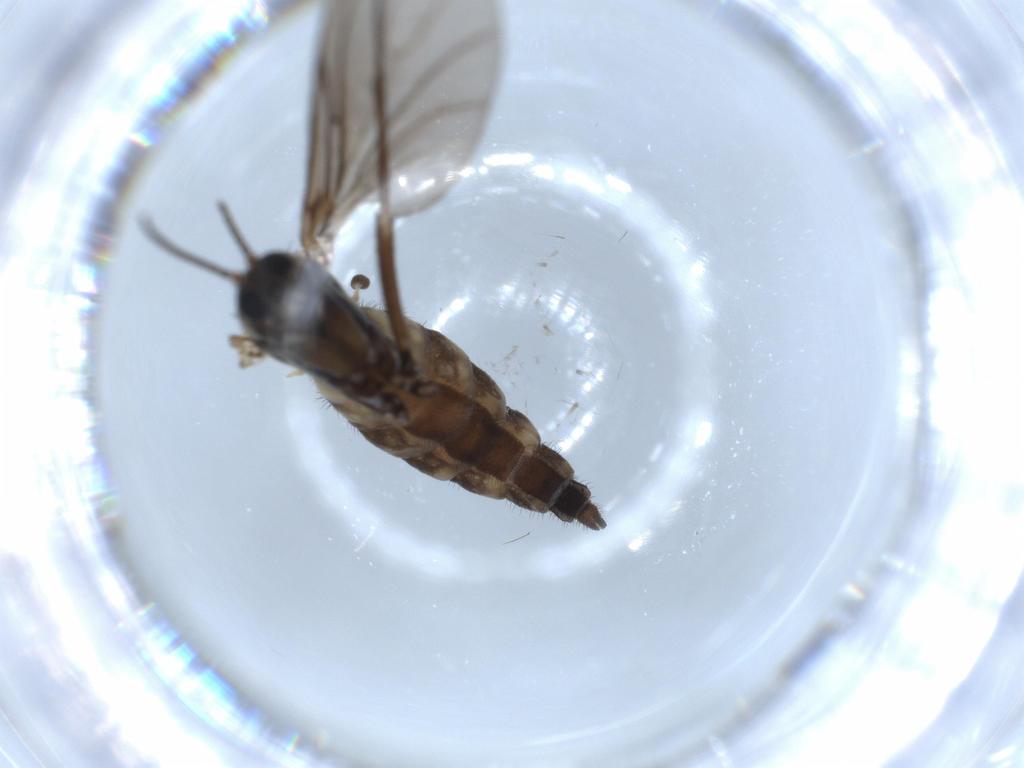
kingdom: Animalia
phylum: Arthropoda
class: Insecta
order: Diptera
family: Sciaridae
